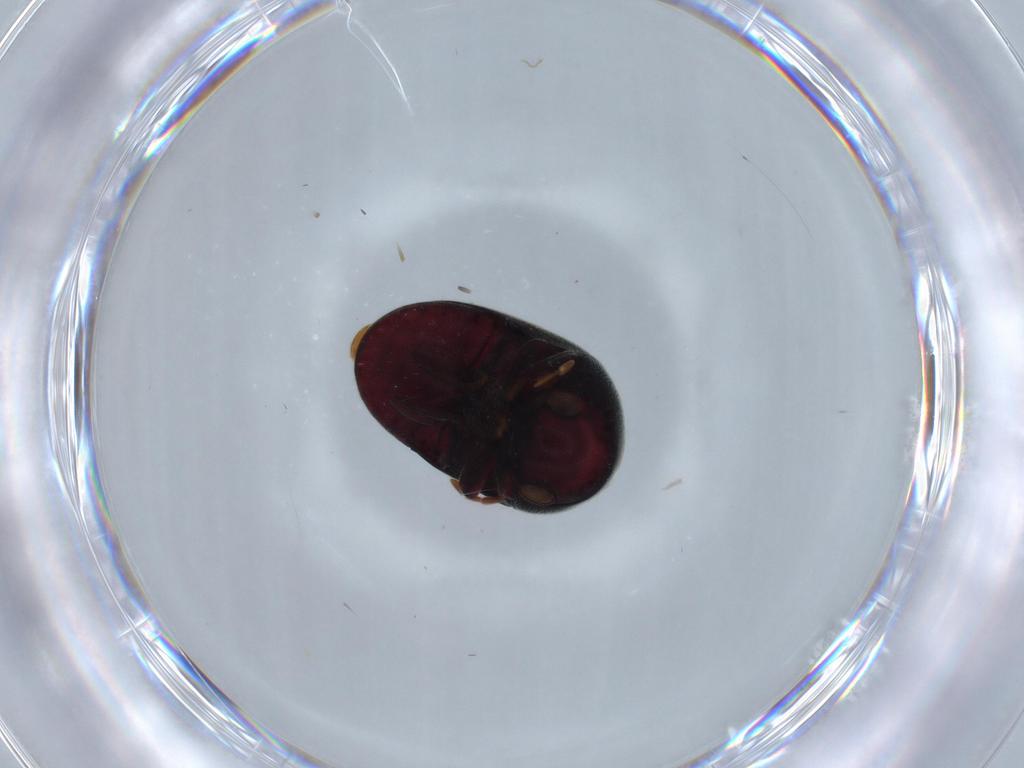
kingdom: Animalia
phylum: Arthropoda
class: Insecta
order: Coleoptera
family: Ptinidae
